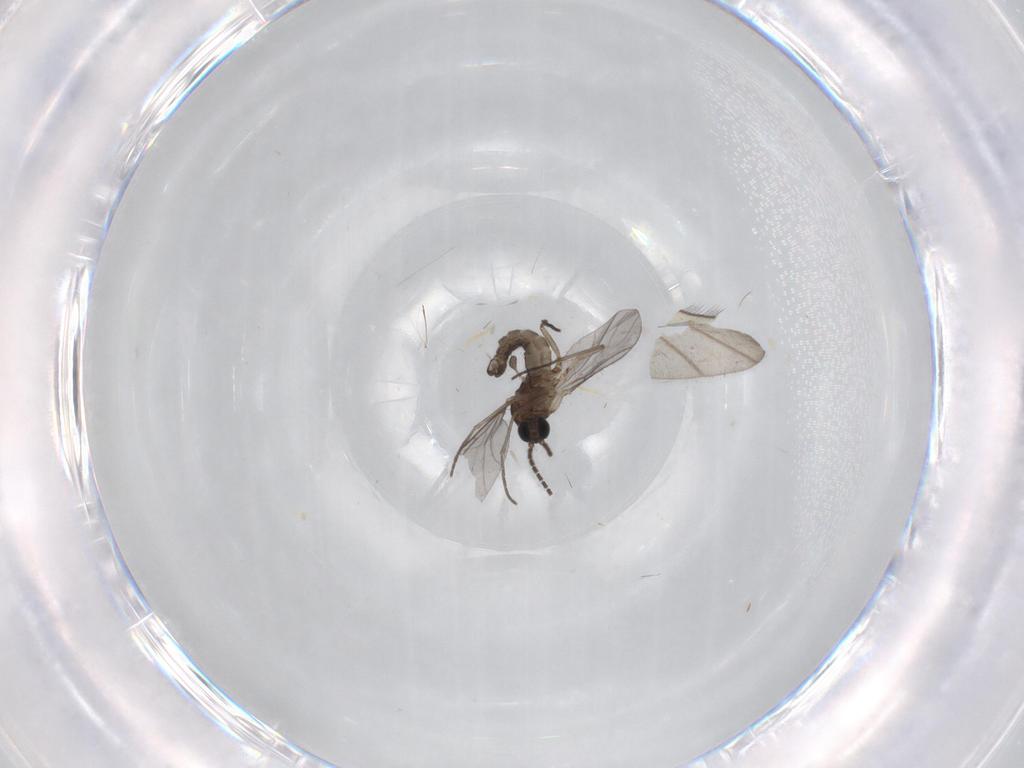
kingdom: Animalia
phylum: Arthropoda
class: Insecta
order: Diptera
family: Sciaridae
